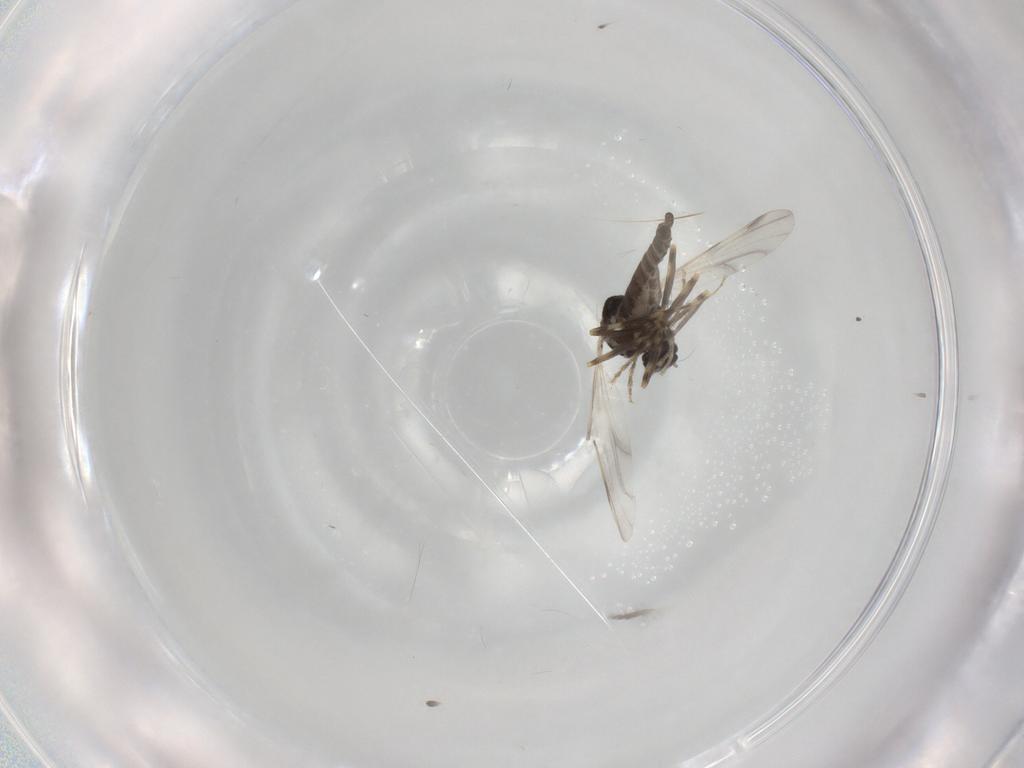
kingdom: Animalia
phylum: Arthropoda
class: Insecta
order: Diptera
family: Ceratopogonidae
